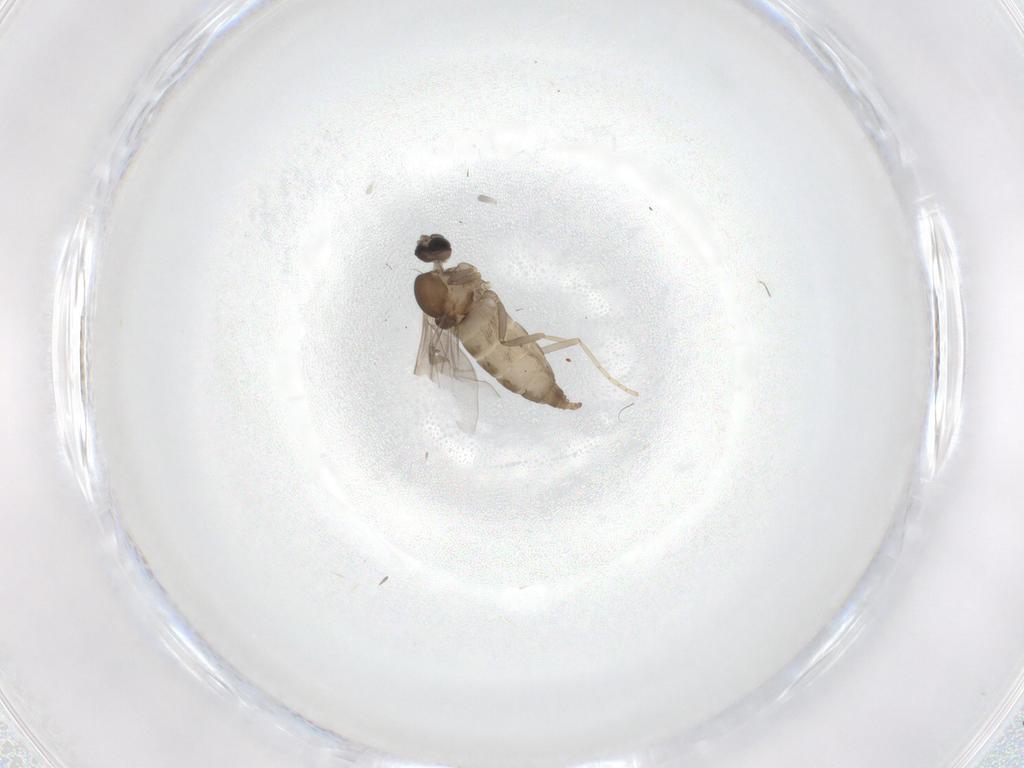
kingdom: Animalia
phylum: Arthropoda
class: Insecta
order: Diptera
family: Cecidomyiidae
